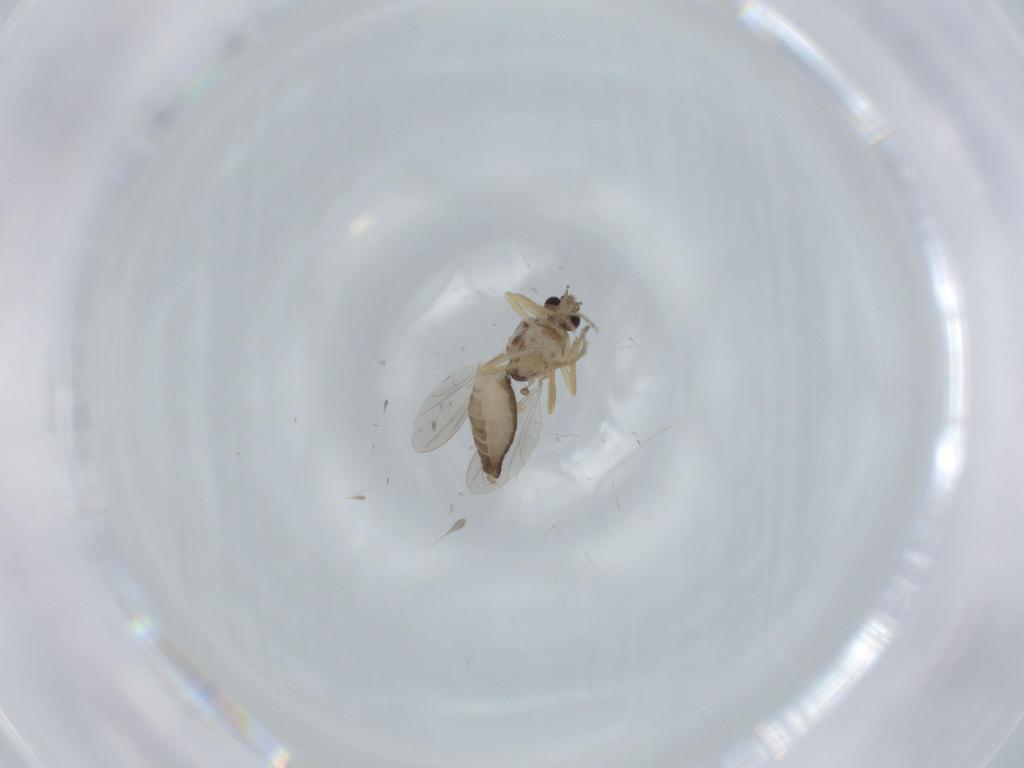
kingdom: Animalia
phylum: Arthropoda
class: Insecta
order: Diptera
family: Ceratopogonidae
